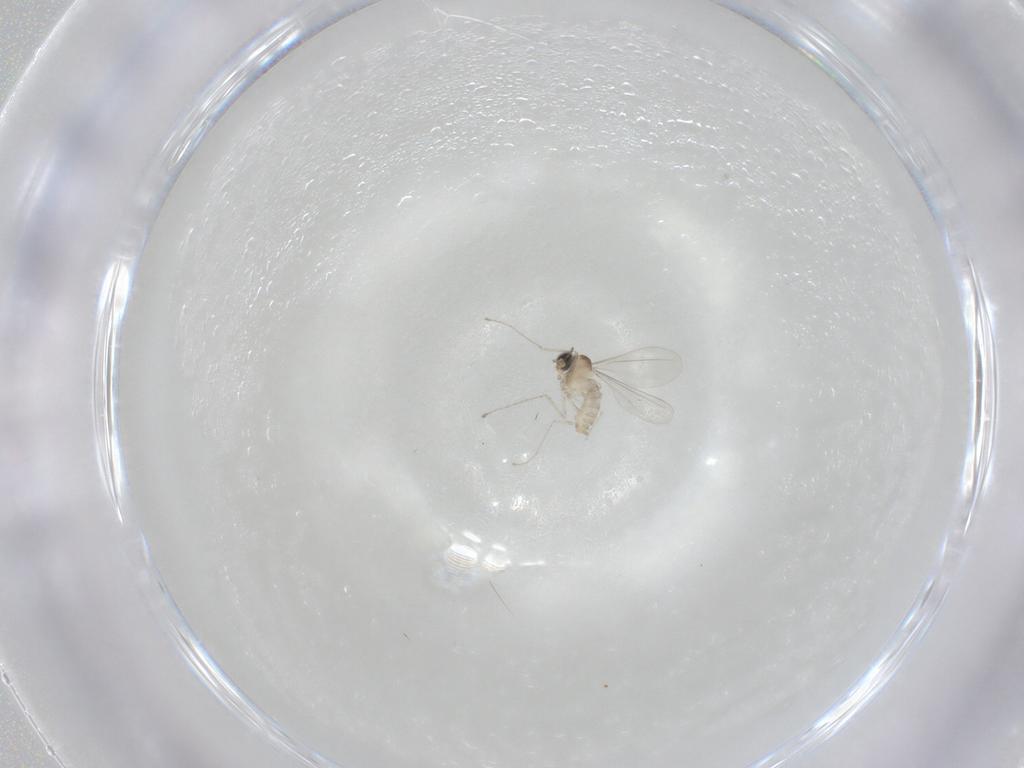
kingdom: Animalia
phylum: Arthropoda
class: Insecta
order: Diptera
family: Cecidomyiidae
